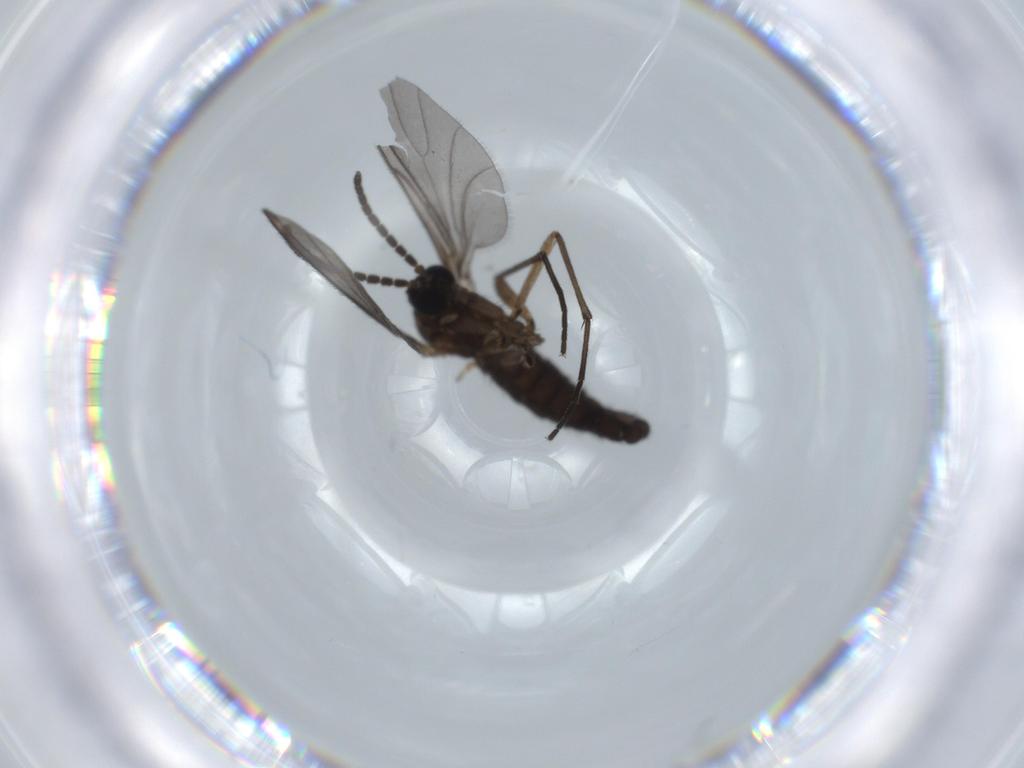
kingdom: Animalia
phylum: Arthropoda
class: Insecta
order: Diptera
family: Sciaridae
